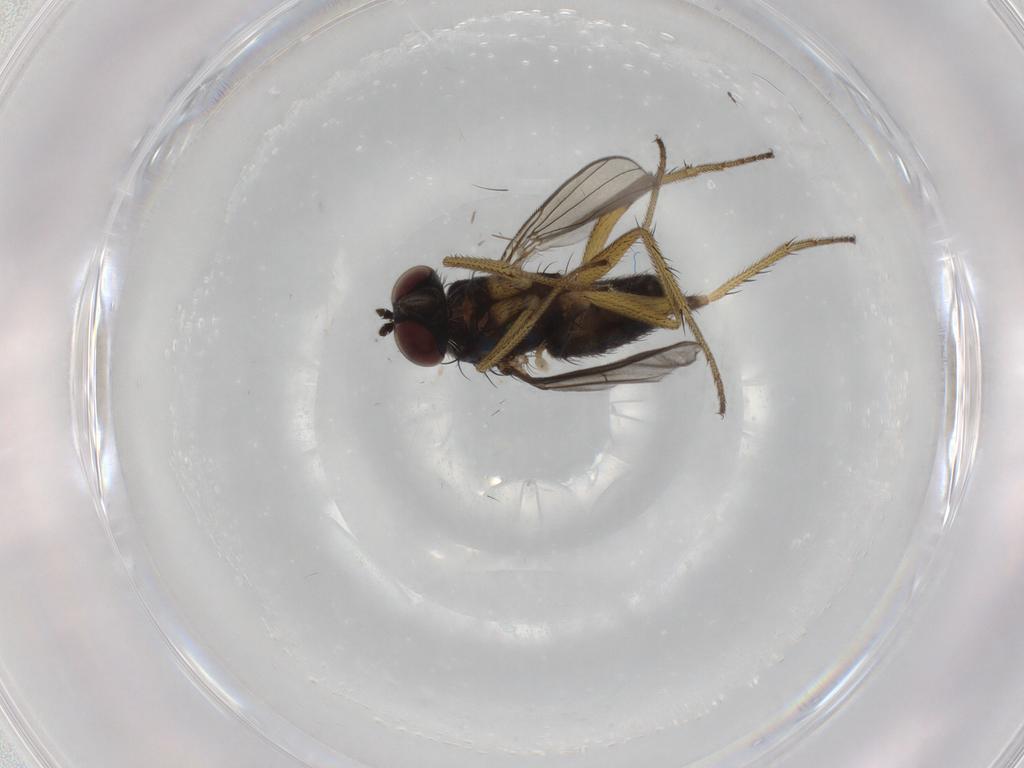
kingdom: Animalia
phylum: Arthropoda
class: Insecta
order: Diptera
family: Dolichopodidae
